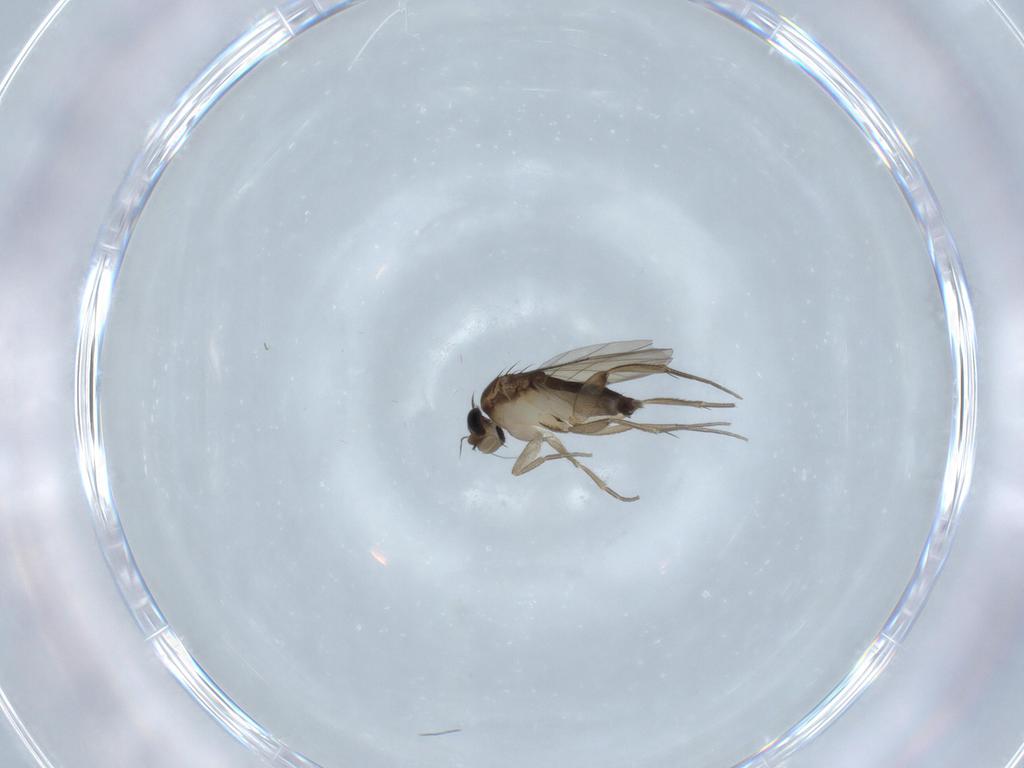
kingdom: Animalia
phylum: Arthropoda
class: Insecta
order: Diptera
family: Phoridae
